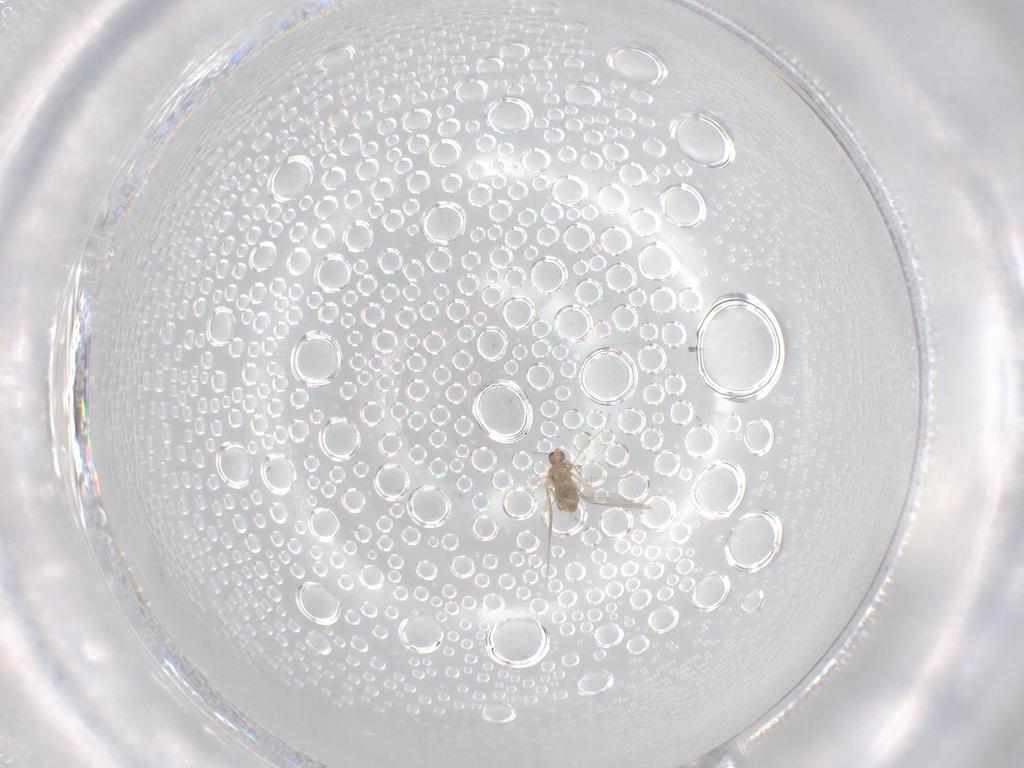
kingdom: Animalia
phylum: Arthropoda
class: Insecta
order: Diptera
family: Cecidomyiidae
